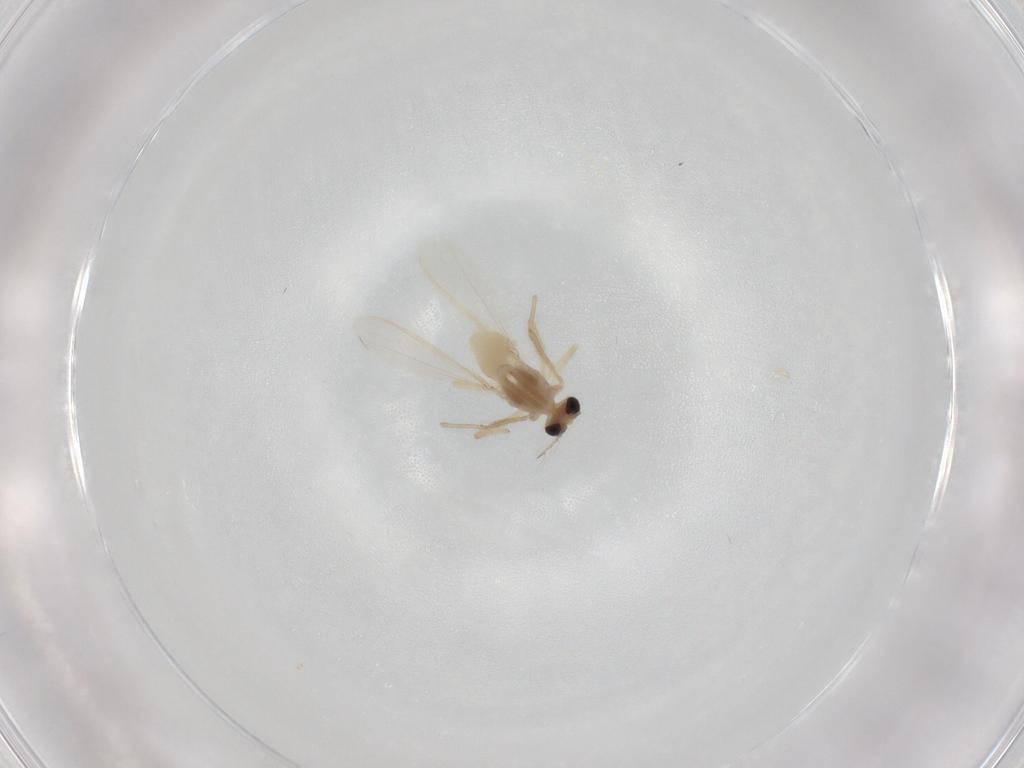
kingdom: Animalia
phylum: Arthropoda
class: Insecta
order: Diptera
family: Chironomidae
